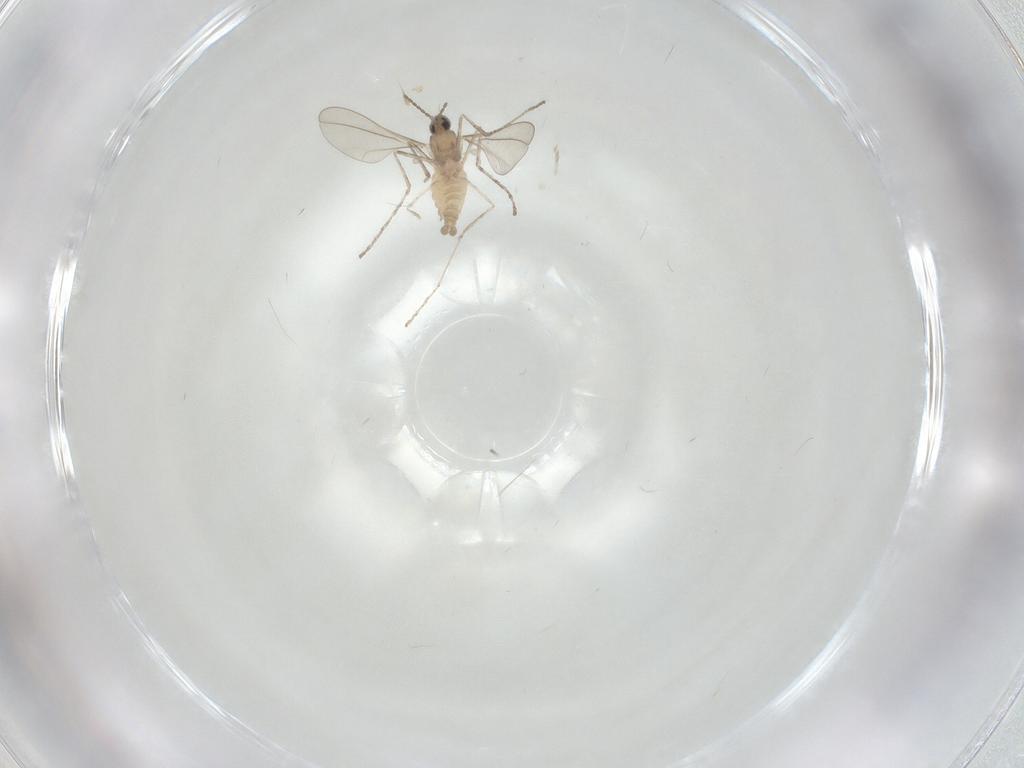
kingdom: Animalia
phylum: Arthropoda
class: Insecta
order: Diptera
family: Cecidomyiidae
